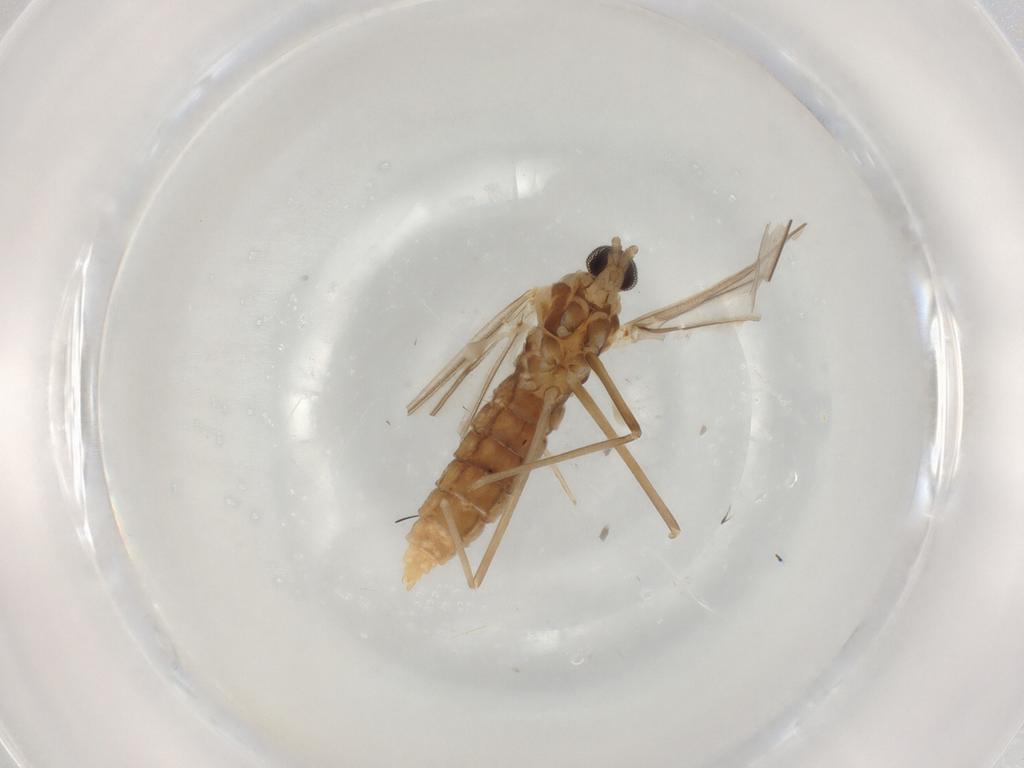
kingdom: Animalia
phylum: Arthropoda
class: Insecta
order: Diptera
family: Cecidomyiidae
